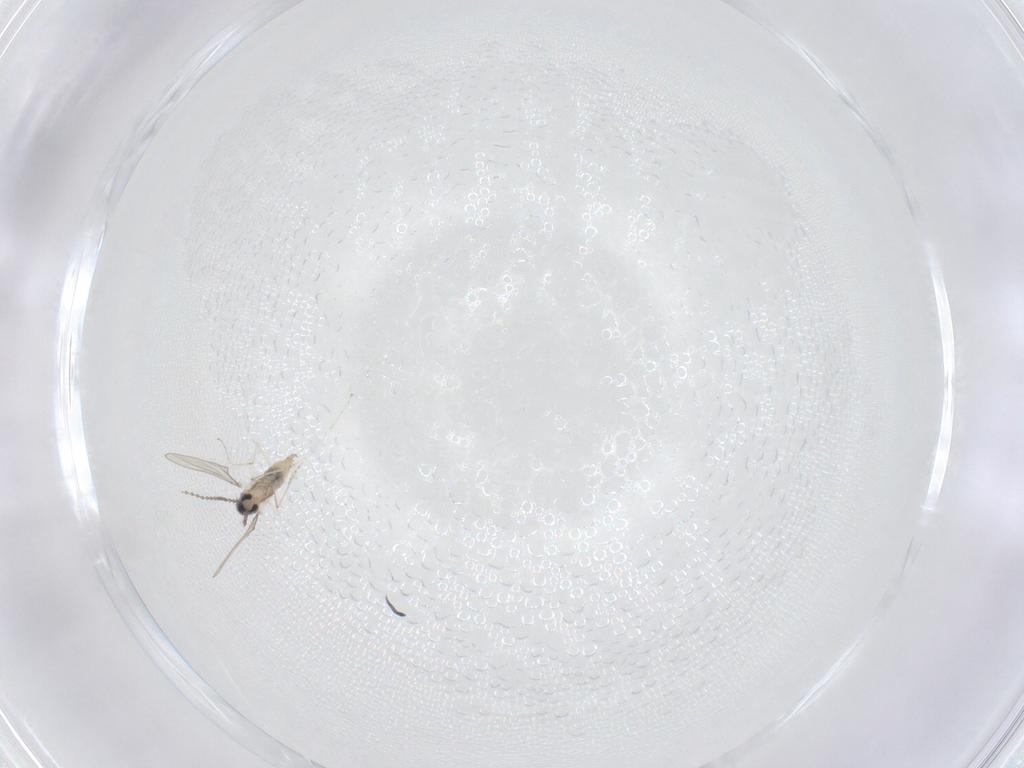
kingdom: Animalia
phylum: Arthropoda
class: Insecta
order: Diptera
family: Cecidomyiidae
